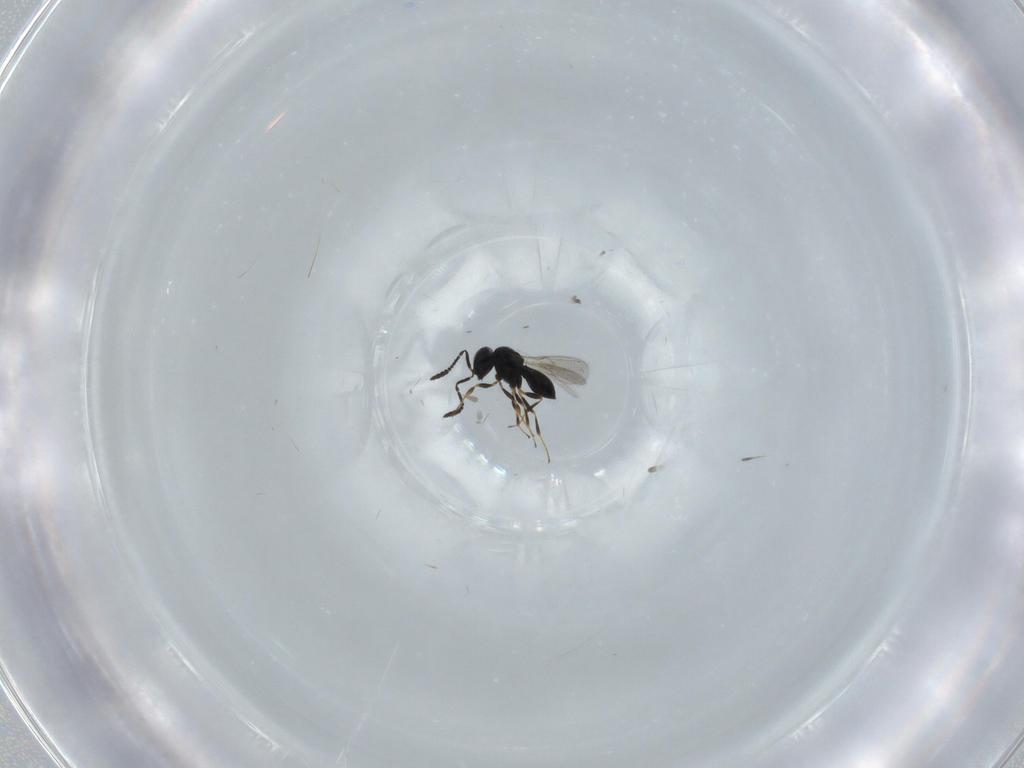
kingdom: Animalia
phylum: Arthropoda
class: Insecta
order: Hymenoptera
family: Scelionidae
